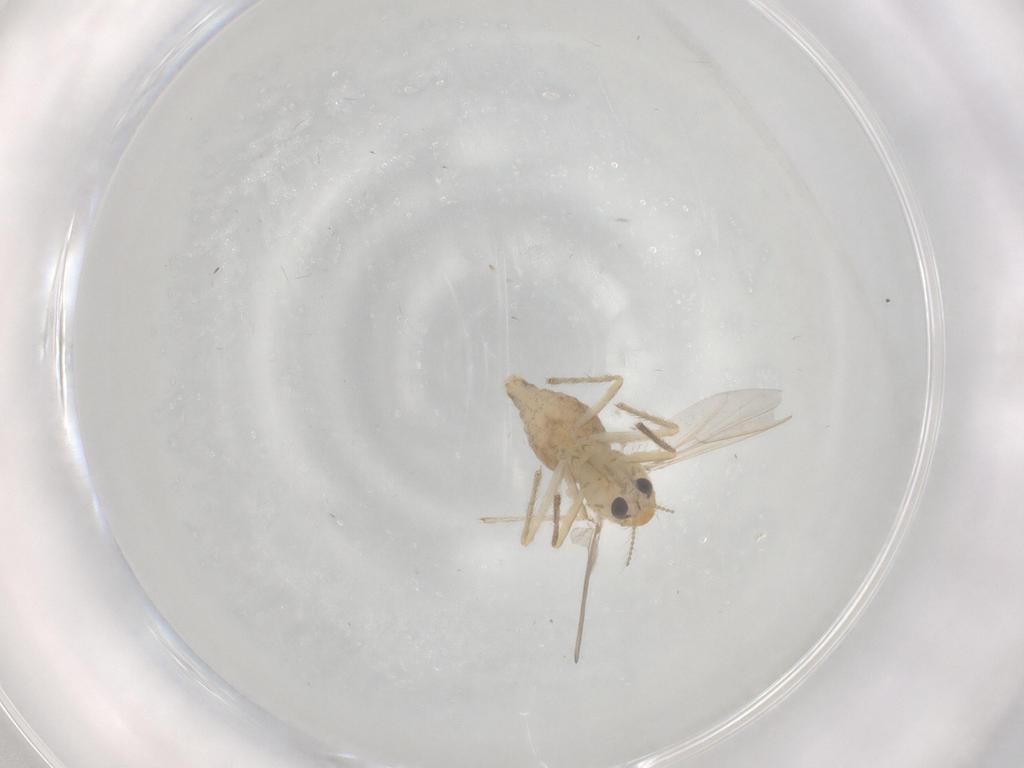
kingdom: Animalia
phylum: Arthropoda
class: Insecta
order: Diptera
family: Chironomidae
